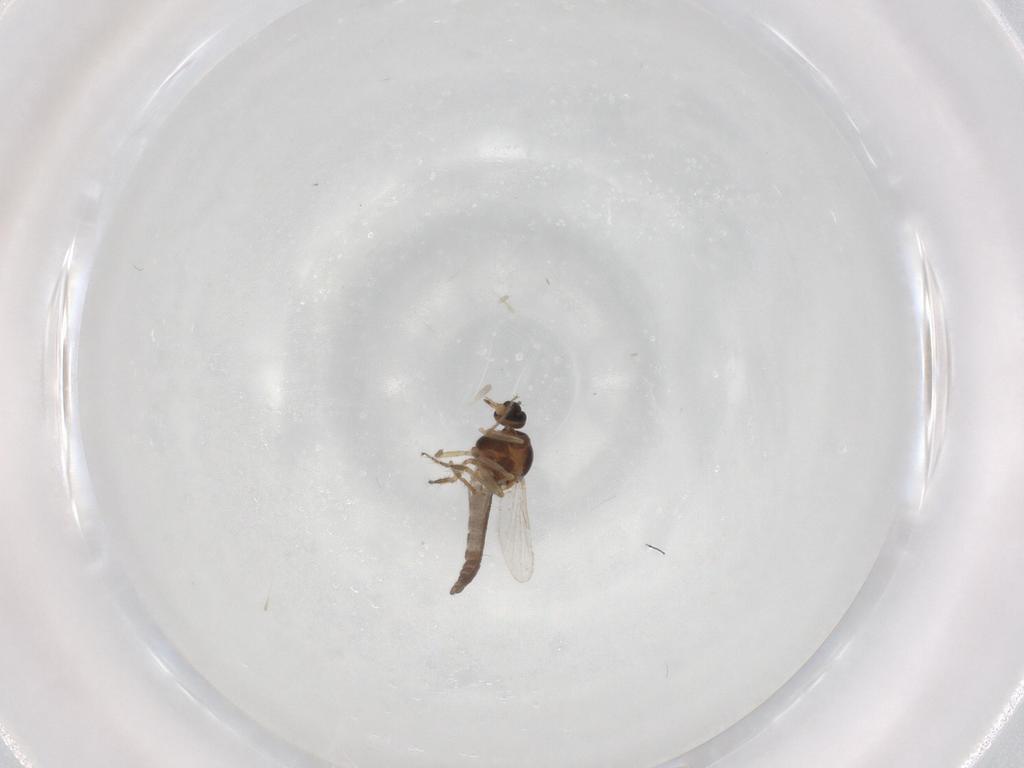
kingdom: Animalia
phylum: Arthropoda
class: Insecta
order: Diptera
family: Ceratopogonidae
